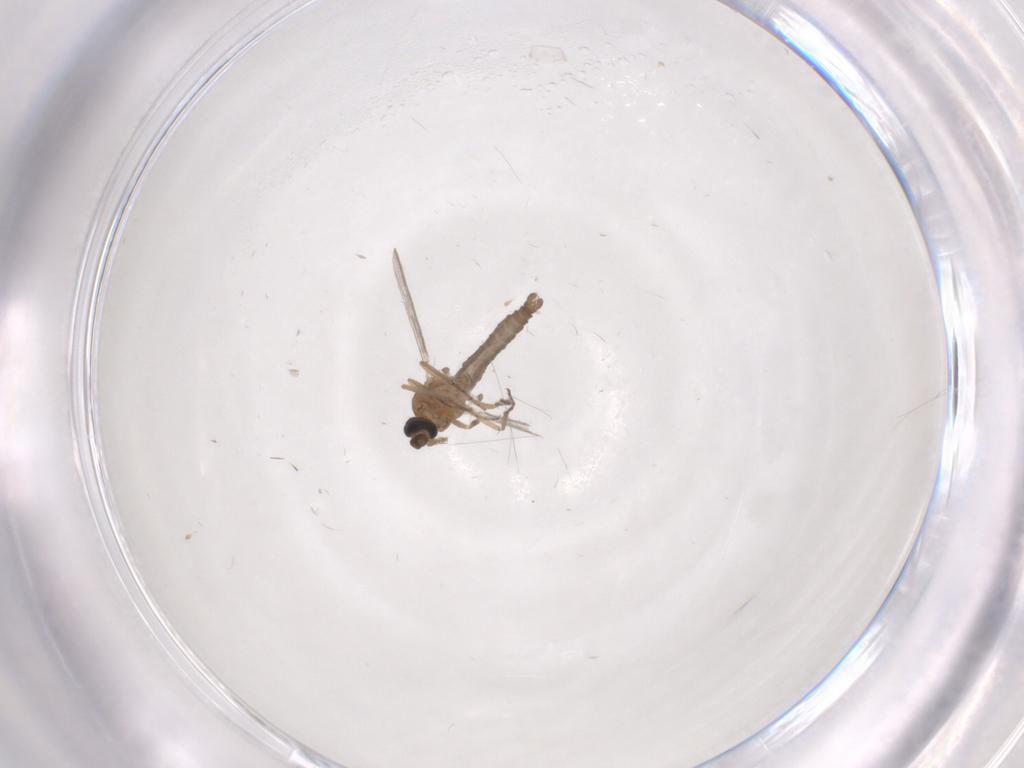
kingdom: Animalia
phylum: Arthropoda
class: Insecta
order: Diptera
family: Ceratopogonidae
